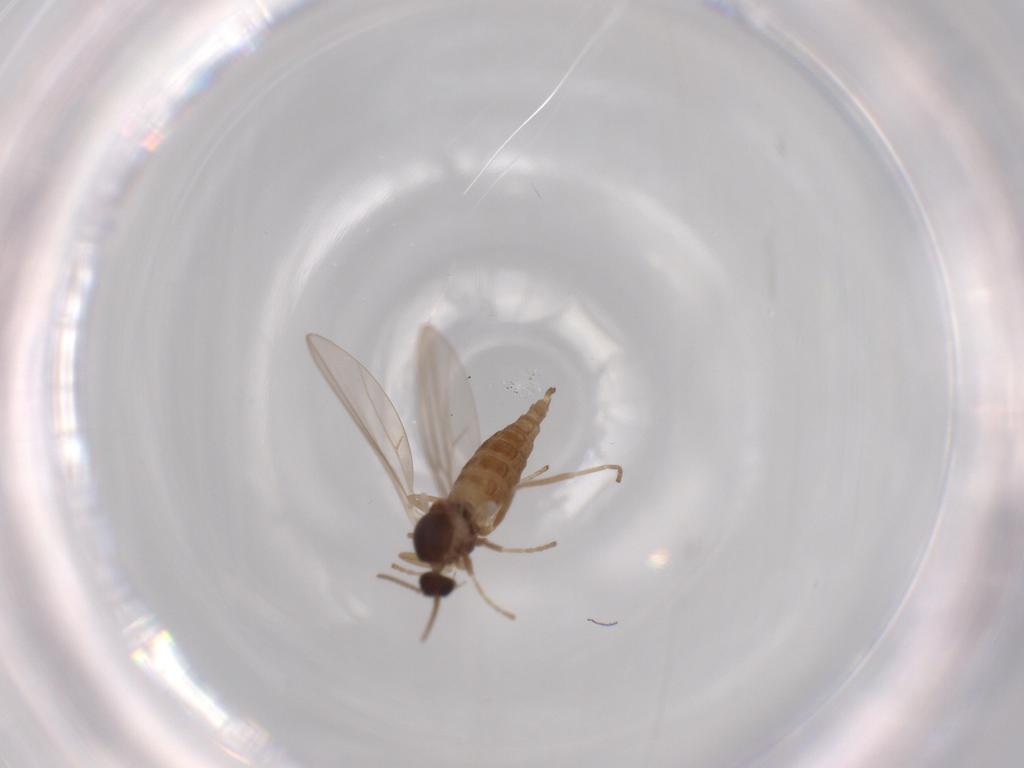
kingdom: Animalia
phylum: Arthropoda
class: Insecta
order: Diptera
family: Cecidomyiidae
